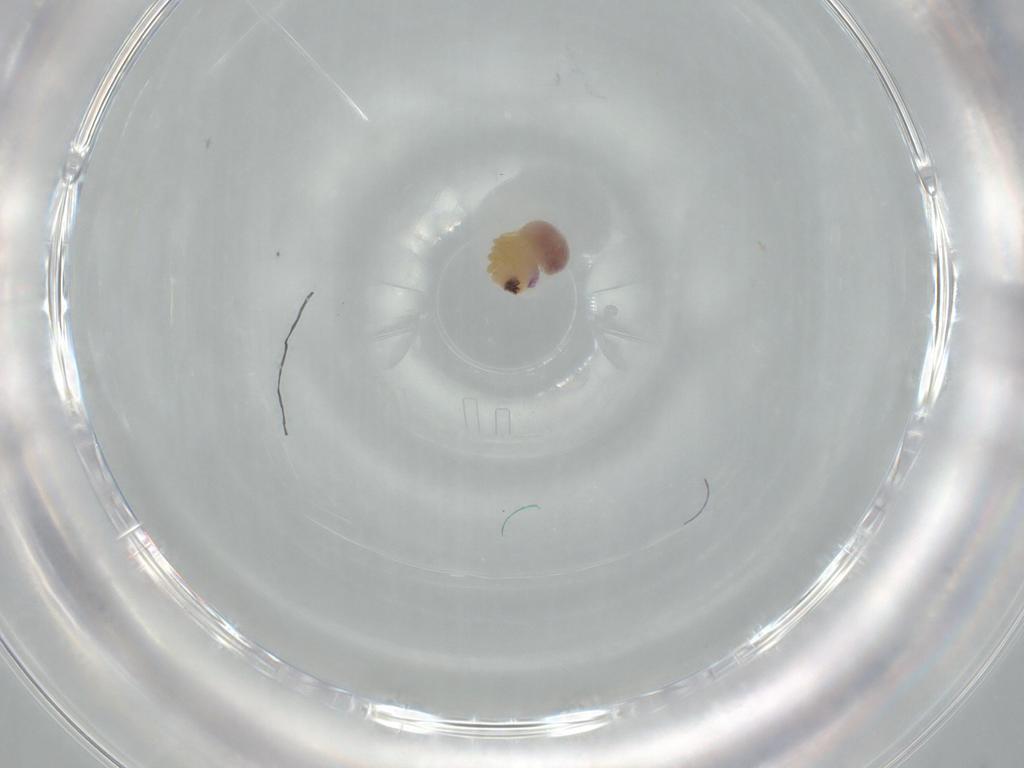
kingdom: Animalia
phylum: Arthropoda
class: Arachnida
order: Araneae
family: Pholcidae
